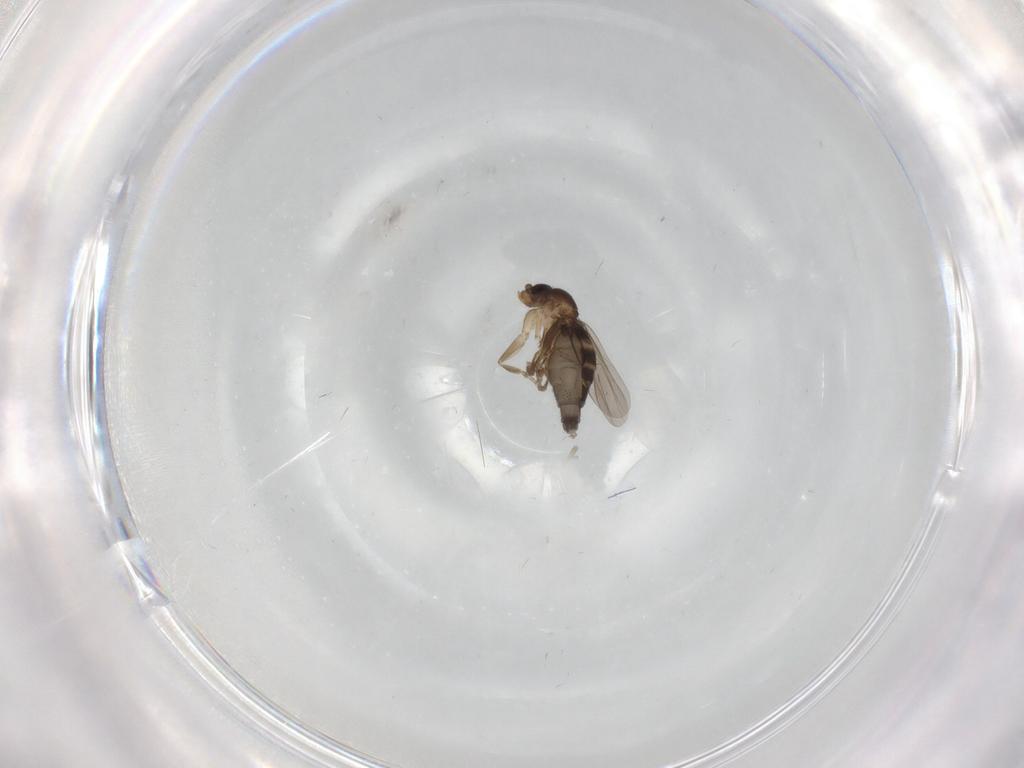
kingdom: Animalia
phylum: Arthropoda
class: Insecta
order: Diptera
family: Phoridae
